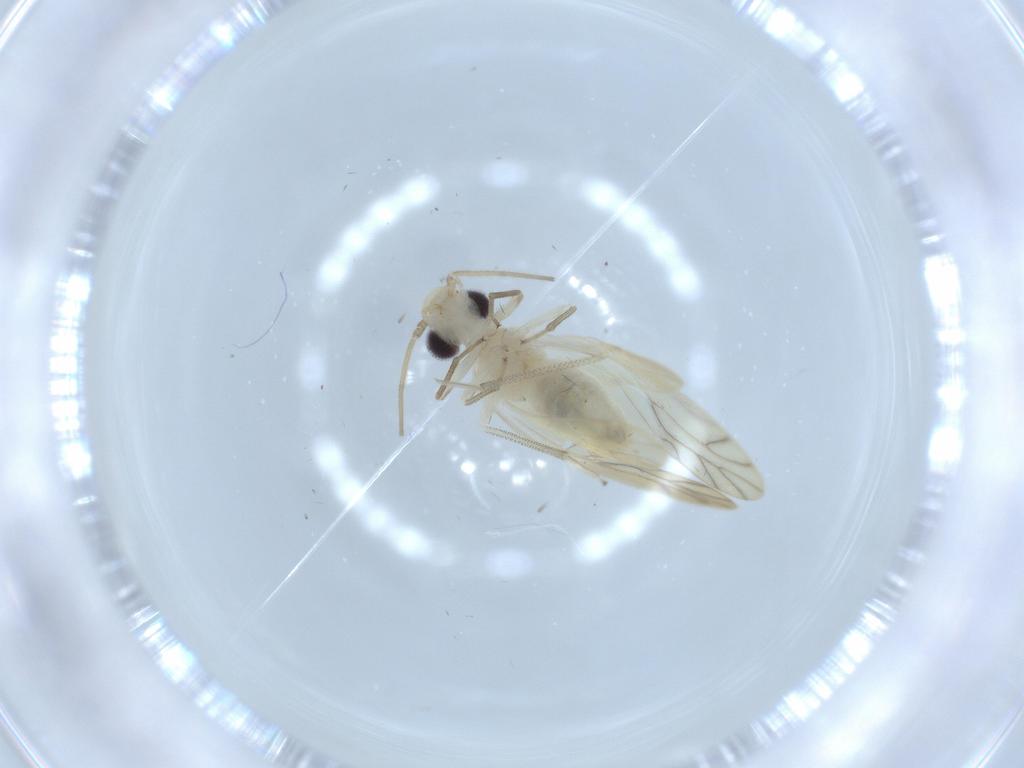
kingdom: Animalia
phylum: Arthropoda
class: Insecta
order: Psocodea
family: Caeciliusidae
